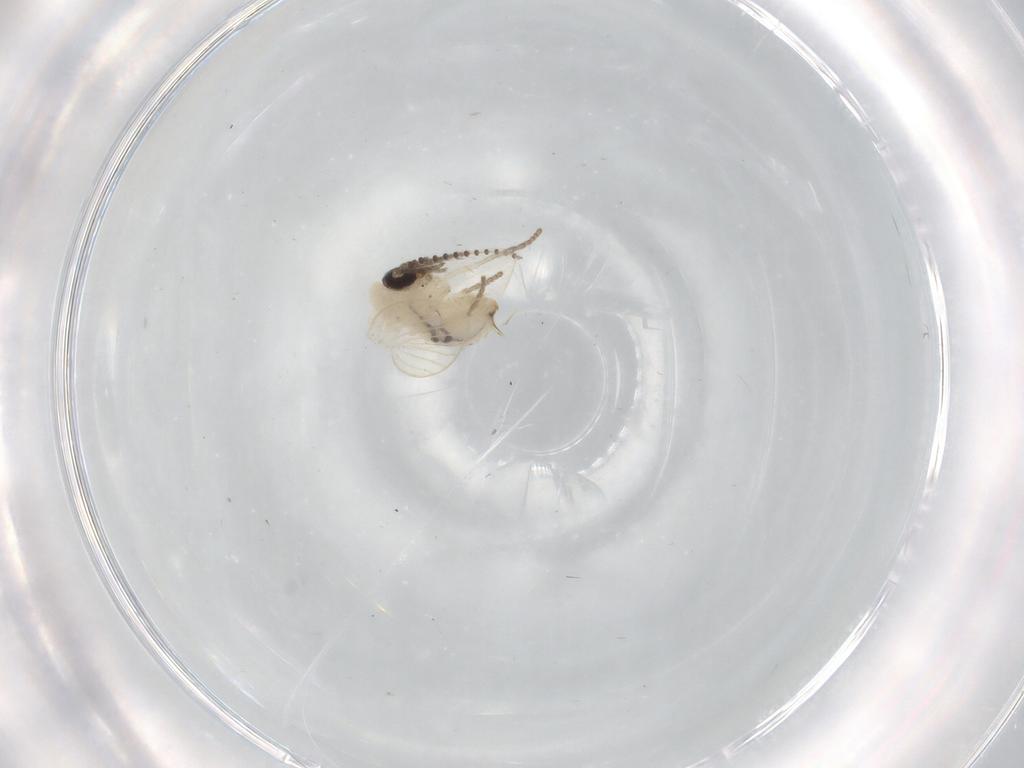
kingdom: Animalia
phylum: Arthropoda
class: Insecta
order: Diptera
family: Psychodidae
